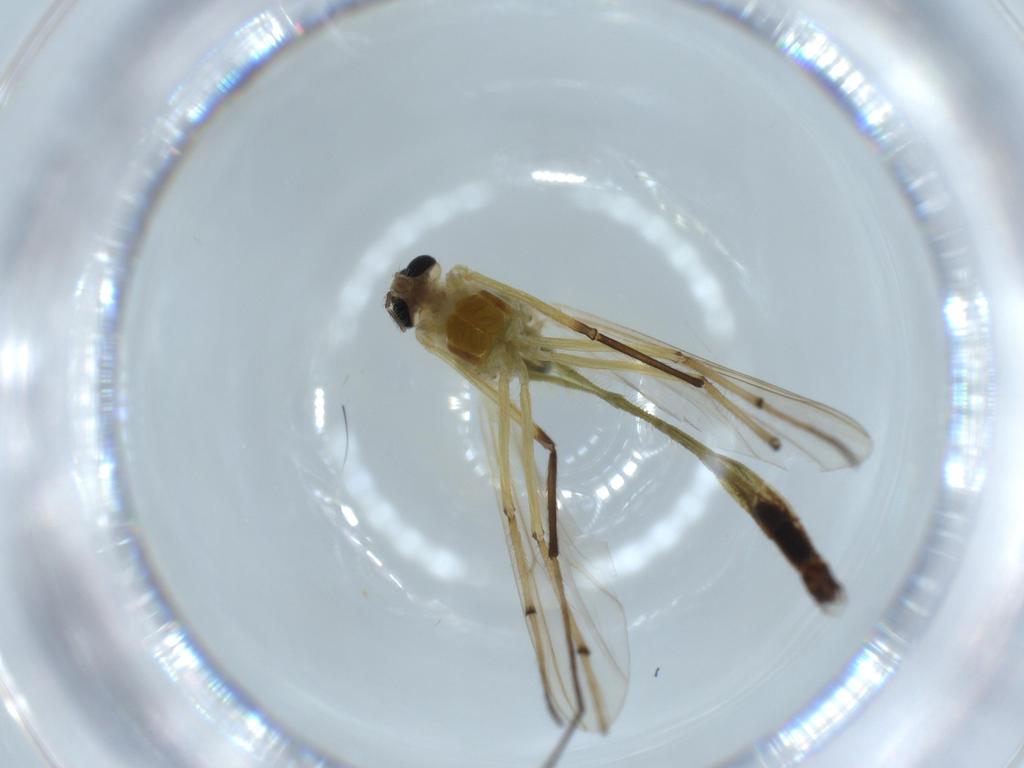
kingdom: Animalia
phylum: Arthropoda
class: Insecta
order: Diptera
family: Chironomidae
